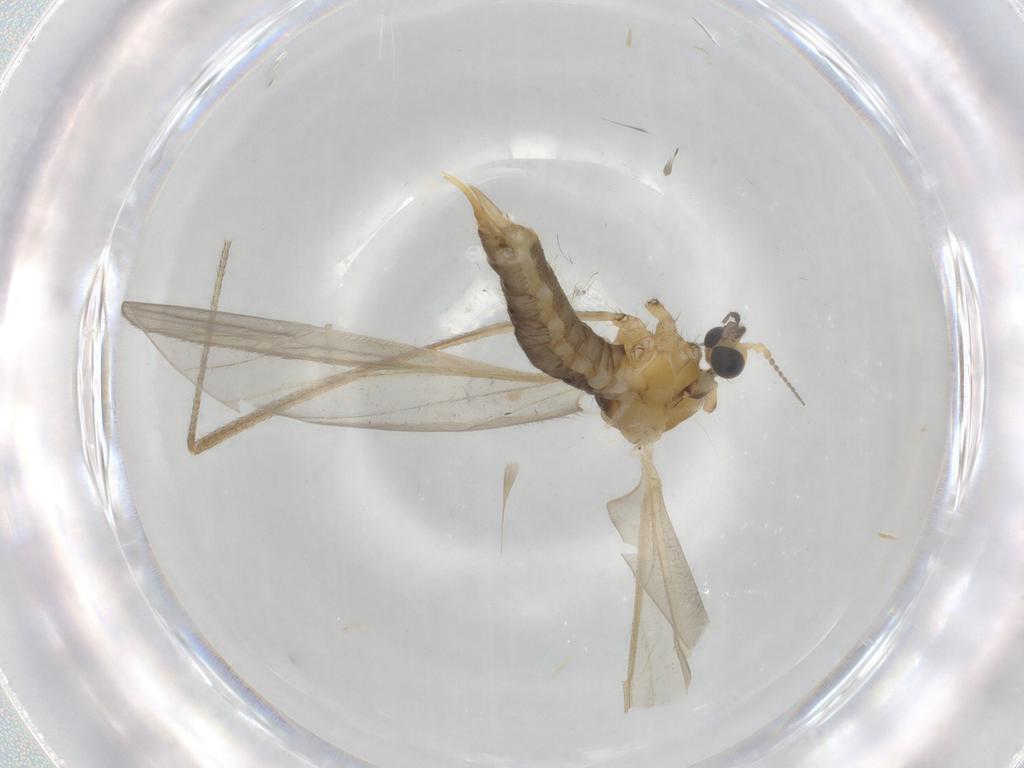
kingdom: Animalia
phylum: Arthropoda
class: Insecta
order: Diptera
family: Limoniidae
